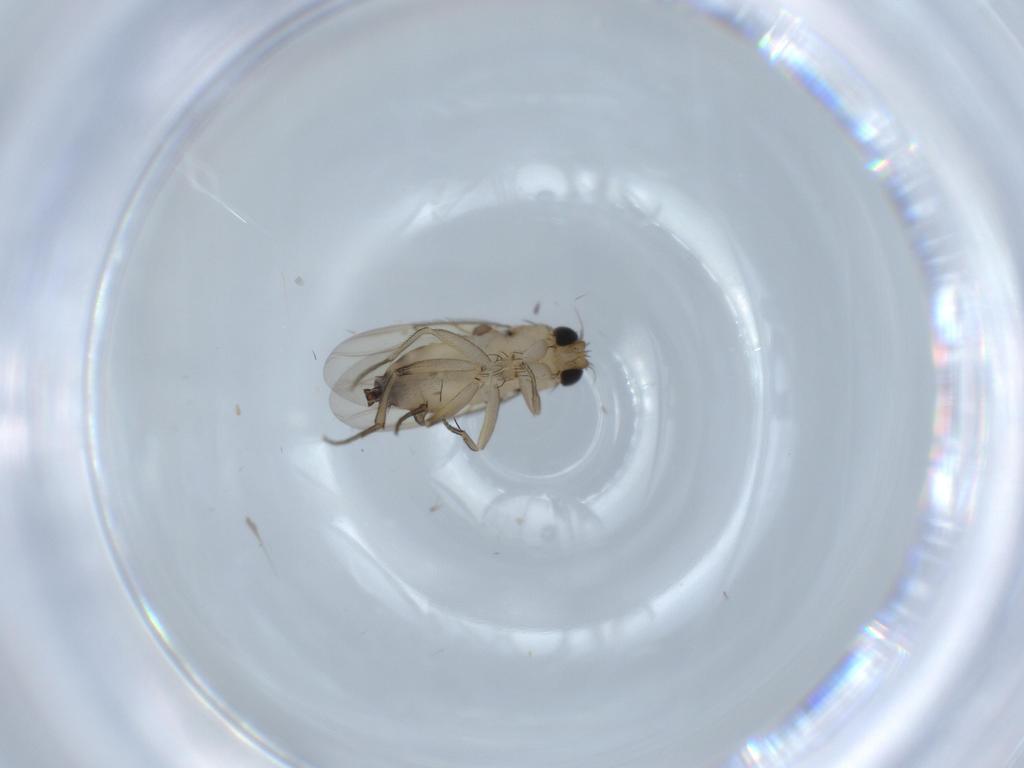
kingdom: Animalia
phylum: Arthropoda
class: Insecta
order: Diptera
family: Phoridae
